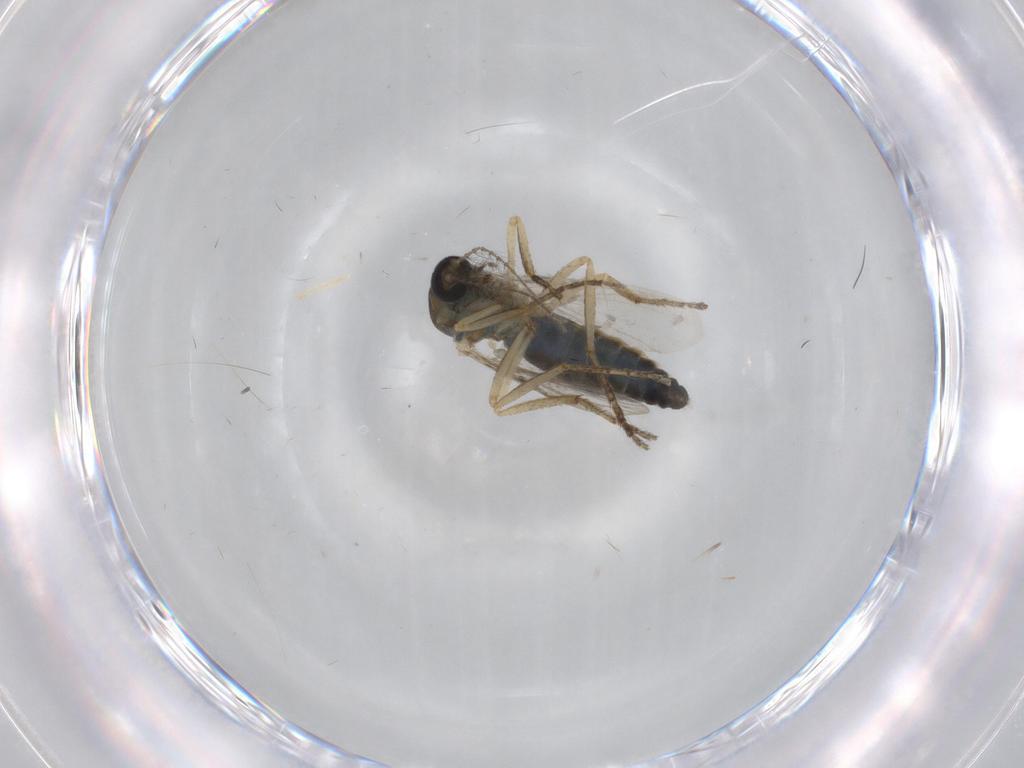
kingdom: Animalia
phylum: Arthropoda
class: Insecta
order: Diptera
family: Ceratopogonidae
